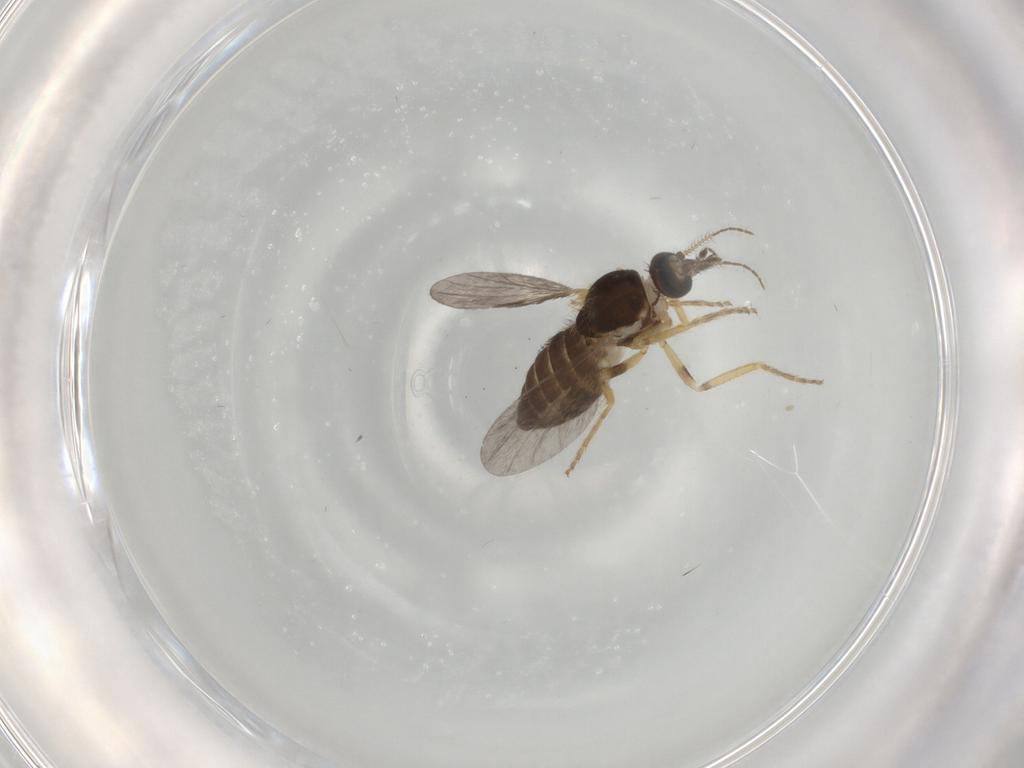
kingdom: Animalia
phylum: Arthropoda
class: Insecta
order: Diptera
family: Ceratopogonidae
